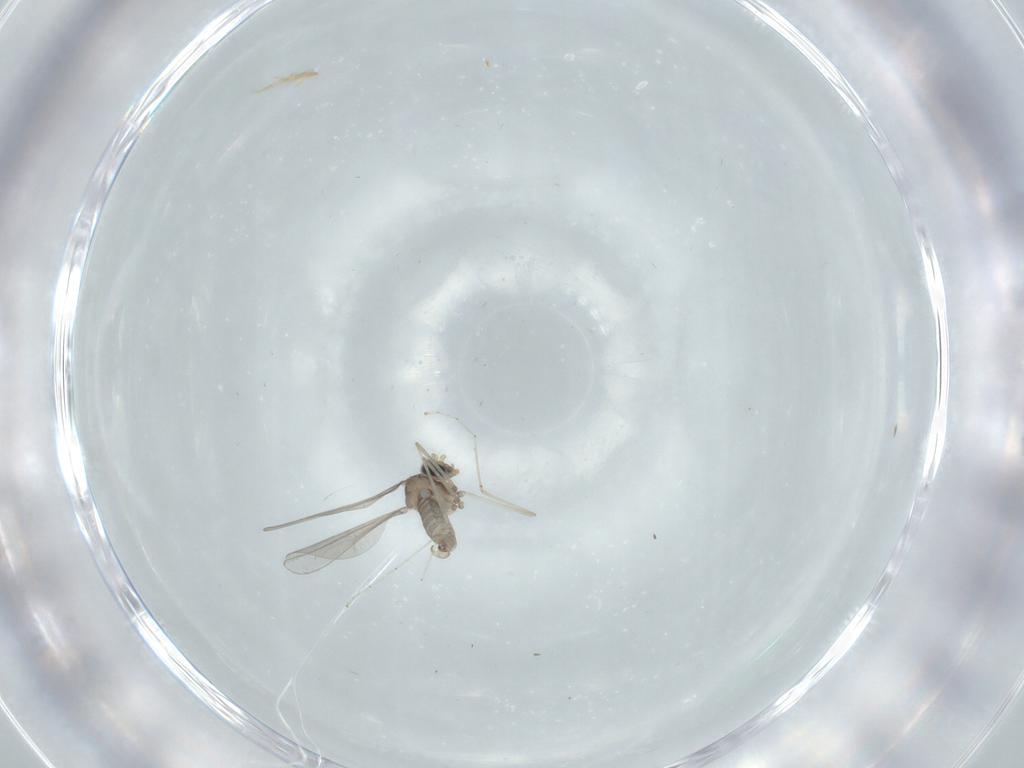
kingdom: Animalia
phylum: Arthropoda
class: Insecta
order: Diptera
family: Cecidomyiidae
